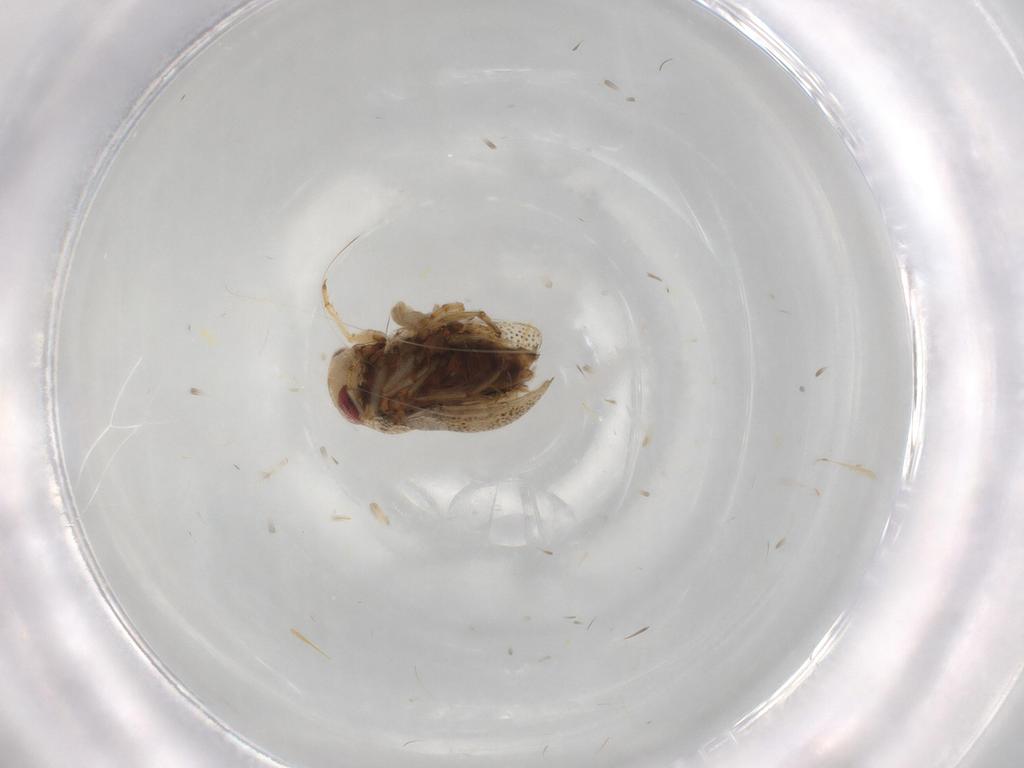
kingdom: Animalia
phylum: Arthropoda
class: Insecta
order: Hemiptera
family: Rhyparochromidae
